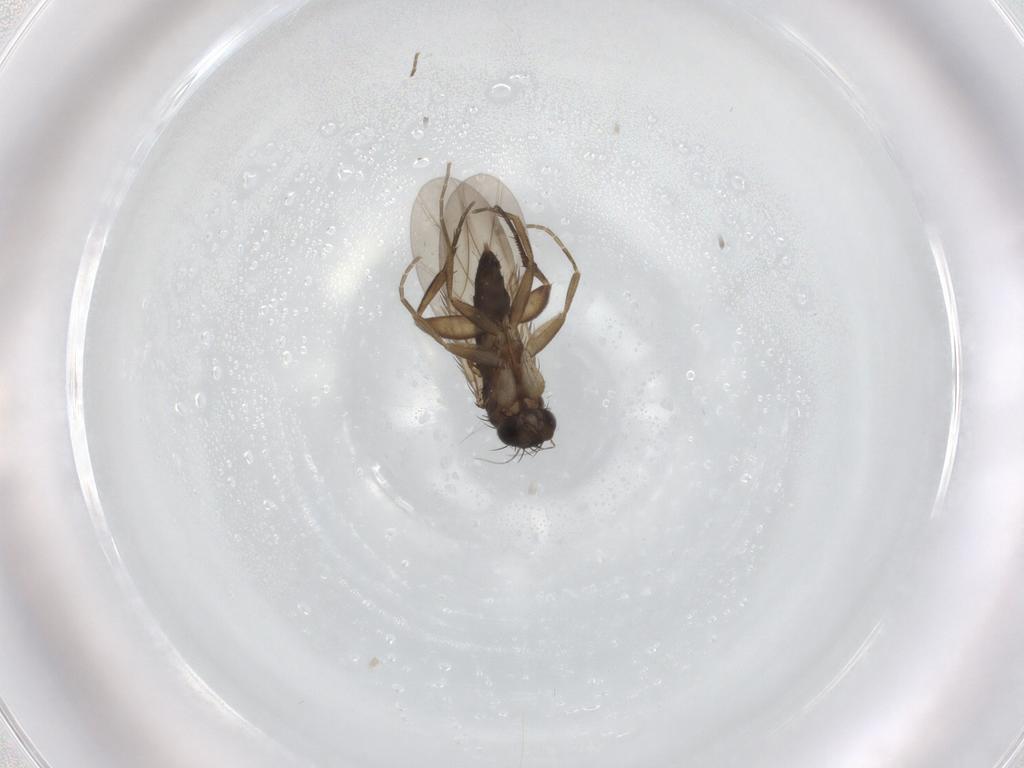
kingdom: Animalia
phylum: Arthropoda
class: Insecta
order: Diptera
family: Phoridae
